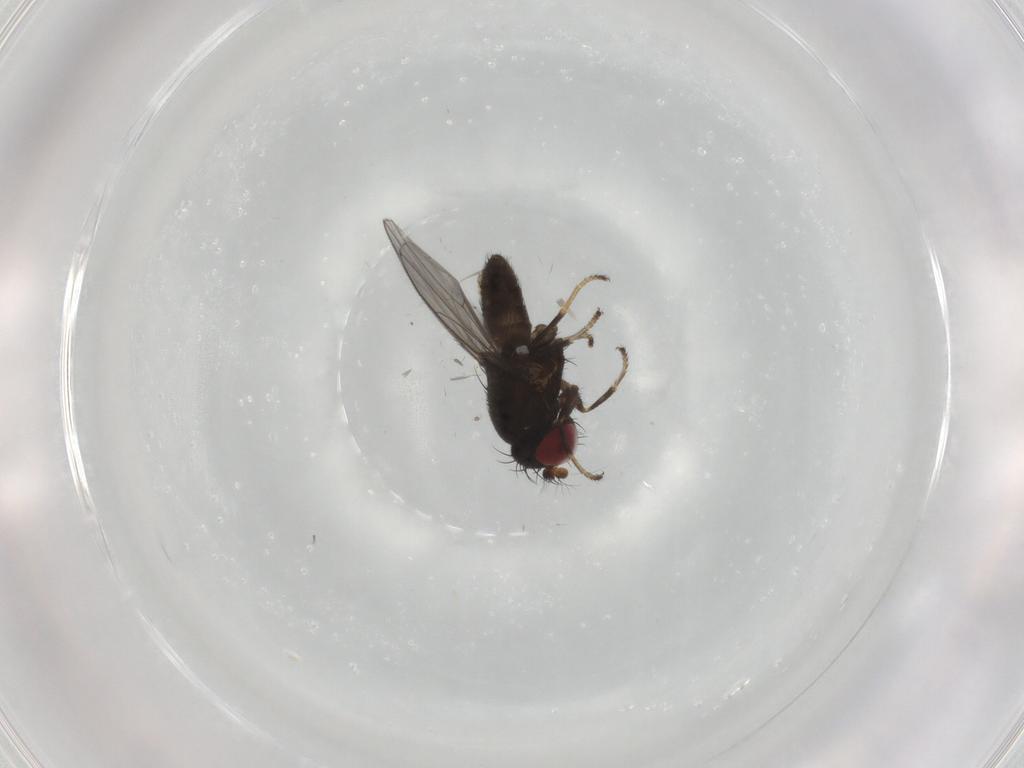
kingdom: Animalia
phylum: Arthropoda
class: Insecta
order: Diptera
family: Ephydridae
